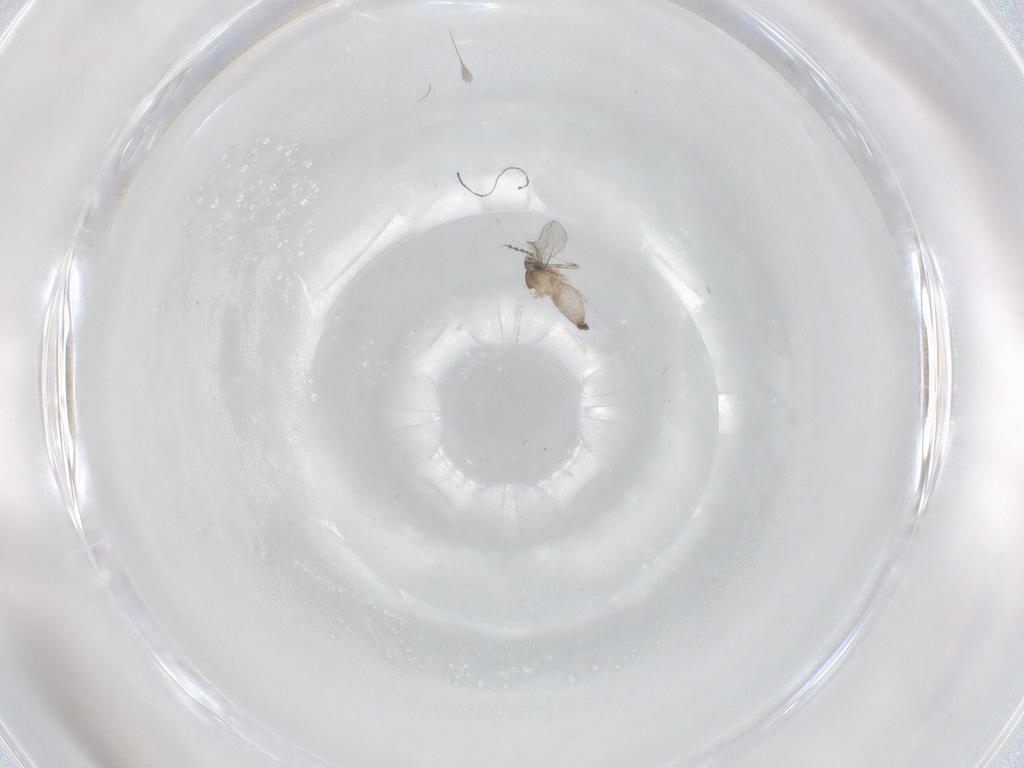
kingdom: Animalia
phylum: Arthropoda
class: Insecta
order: Diptera
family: Cecidomyiidae
